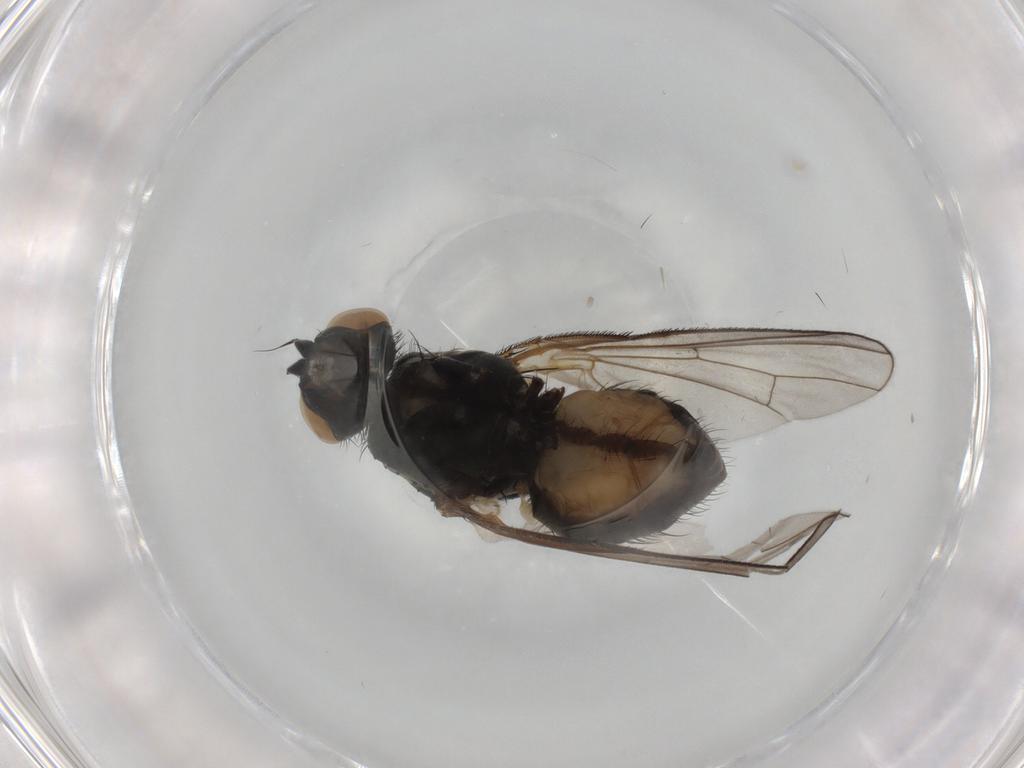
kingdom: Animalia
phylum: Arthropoda
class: Insecta
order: Diptera
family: Anthomyiidae
